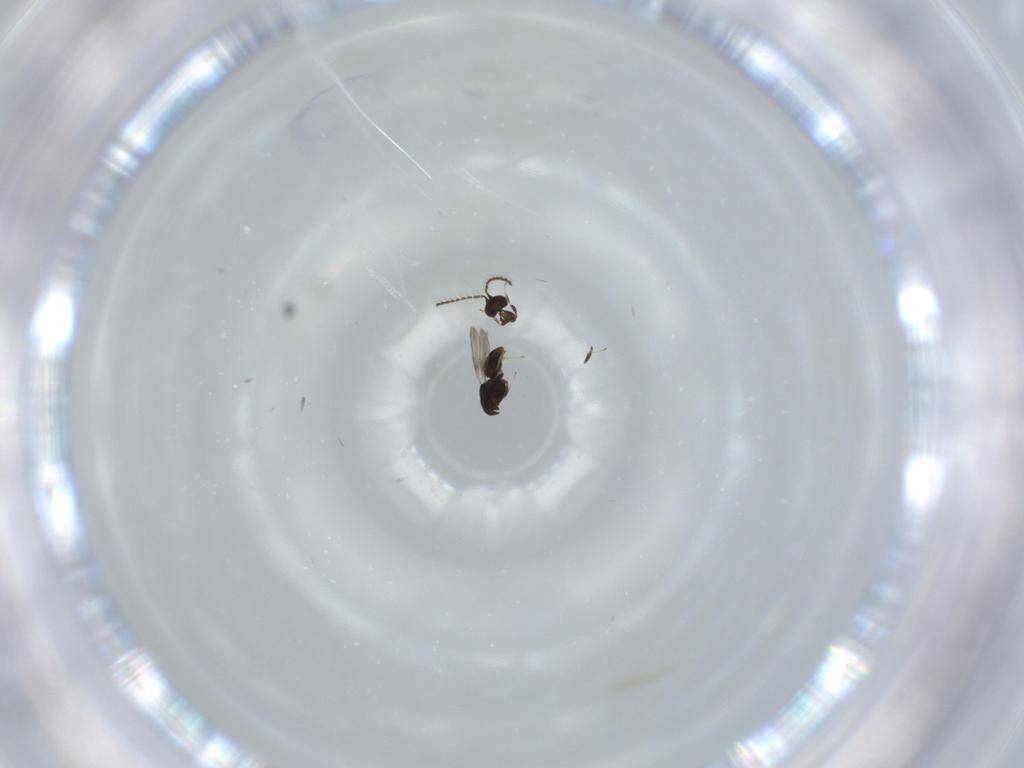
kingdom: Animalia
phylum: Arthropoda
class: Insecta
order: Hymenoptera
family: Ceraphronidae
